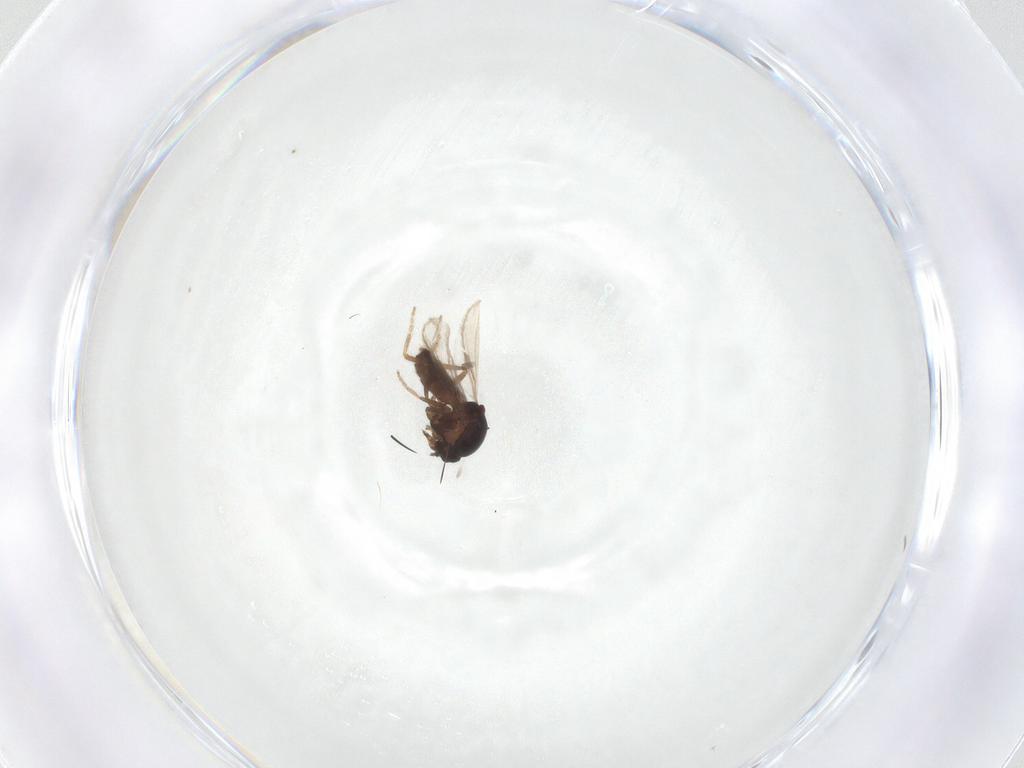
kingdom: Animalia
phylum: Arthropoda
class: Insecta
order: Diptera
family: Ceratopogonidae
